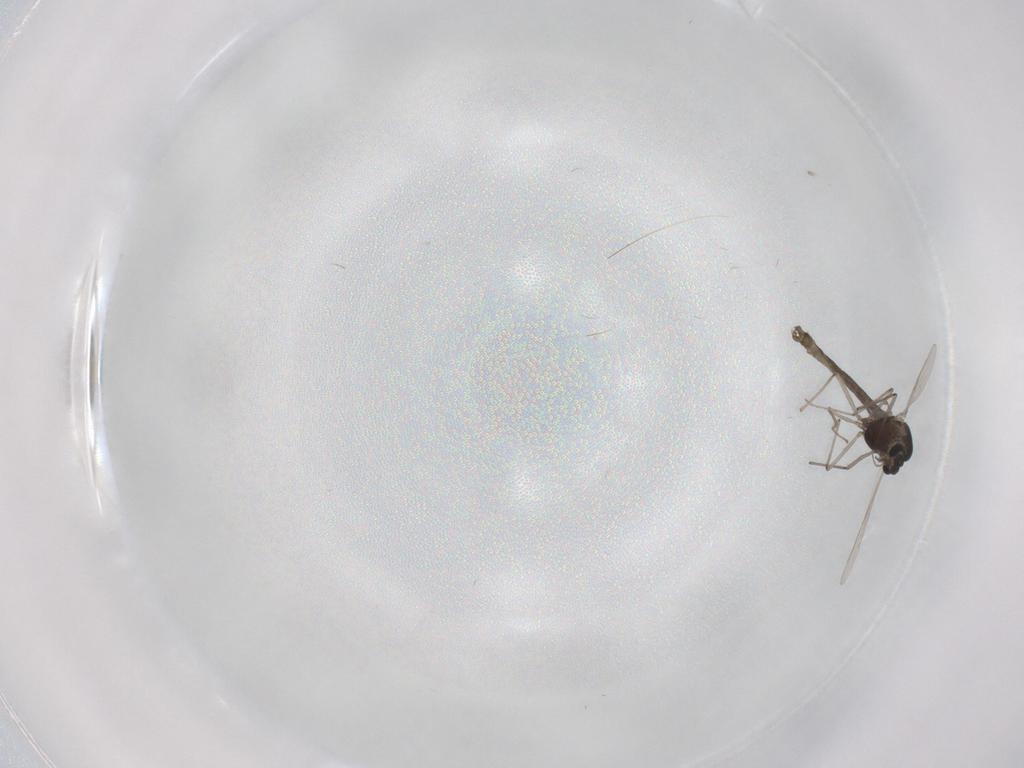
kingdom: Animalia
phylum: Arthropoda
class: Insecta
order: Diptera
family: Chironomidae
